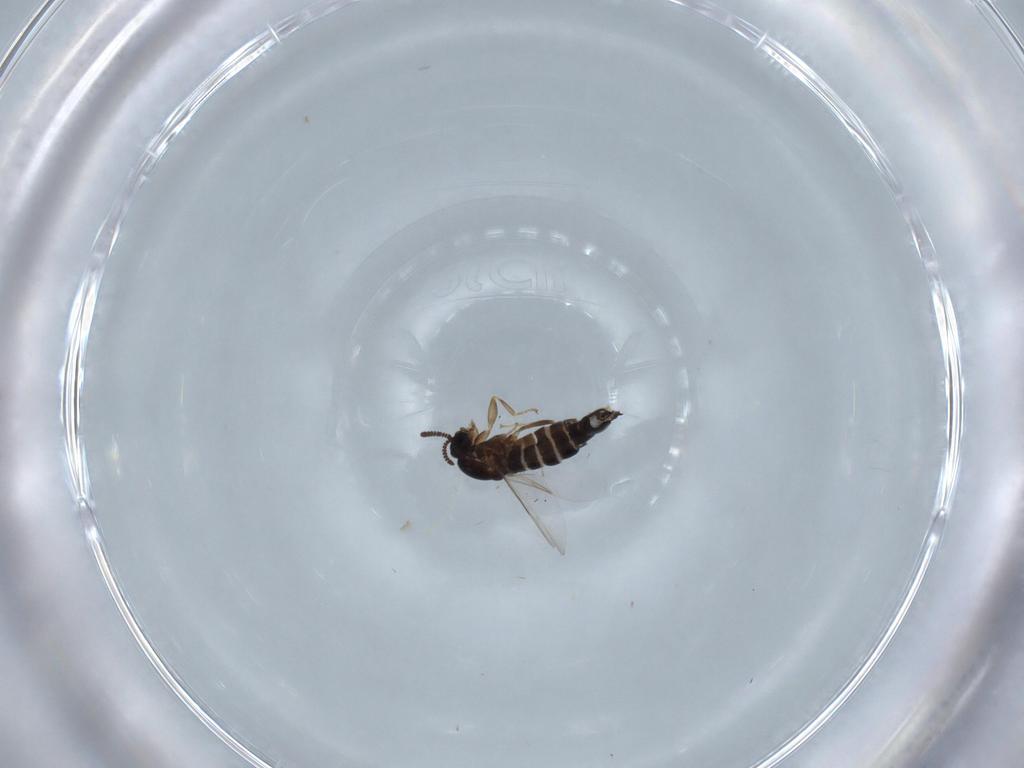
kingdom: Animalia
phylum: Arthropoda
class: Insecta
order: Diptera
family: Scatopsidae
